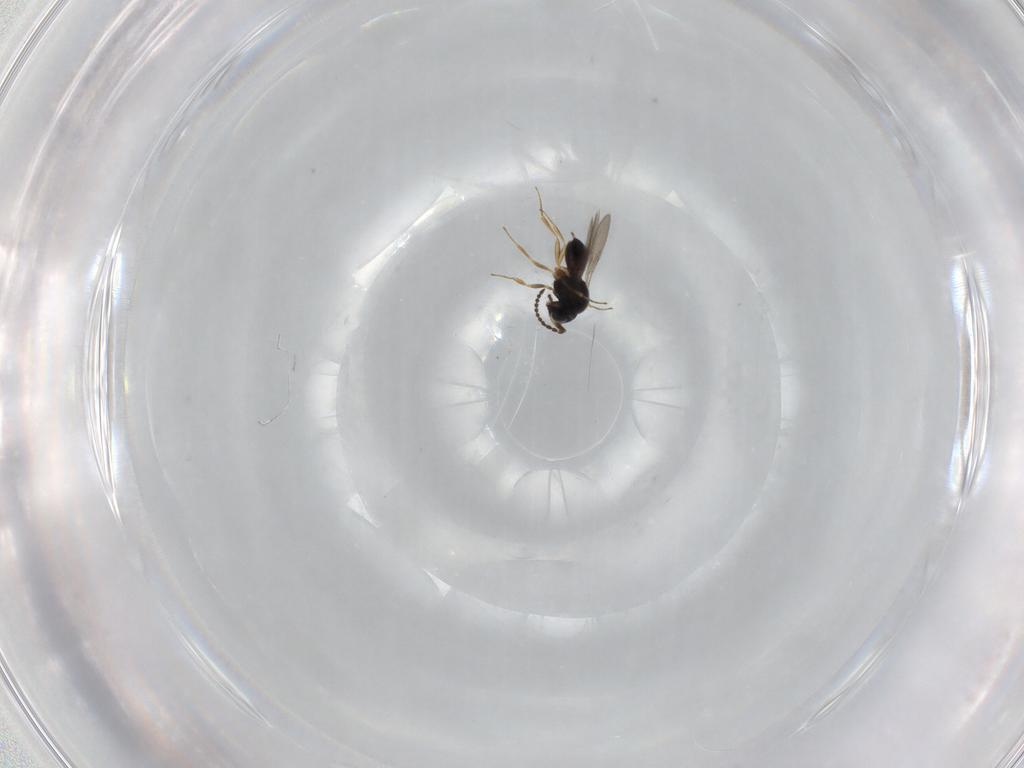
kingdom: Animalia
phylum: Arthropoda
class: Insecta
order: Hymenoptera
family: Scelionidae
